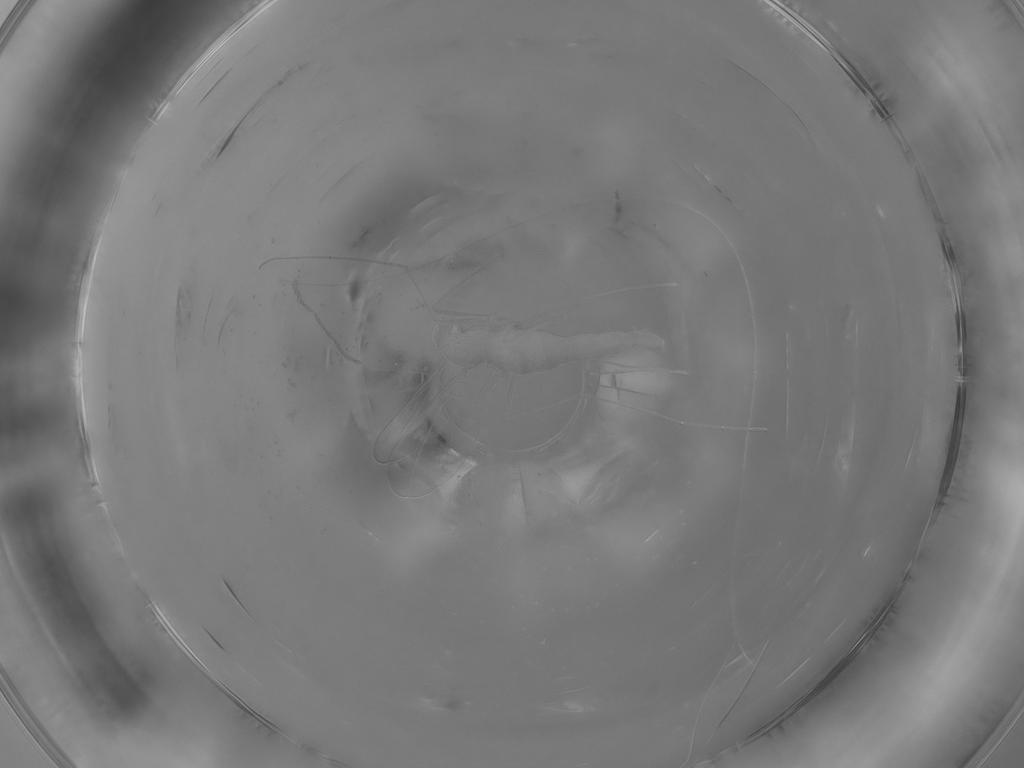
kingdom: Animalia
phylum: Arthropoda
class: Insecta
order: Diptera
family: Cecidomyiidae
